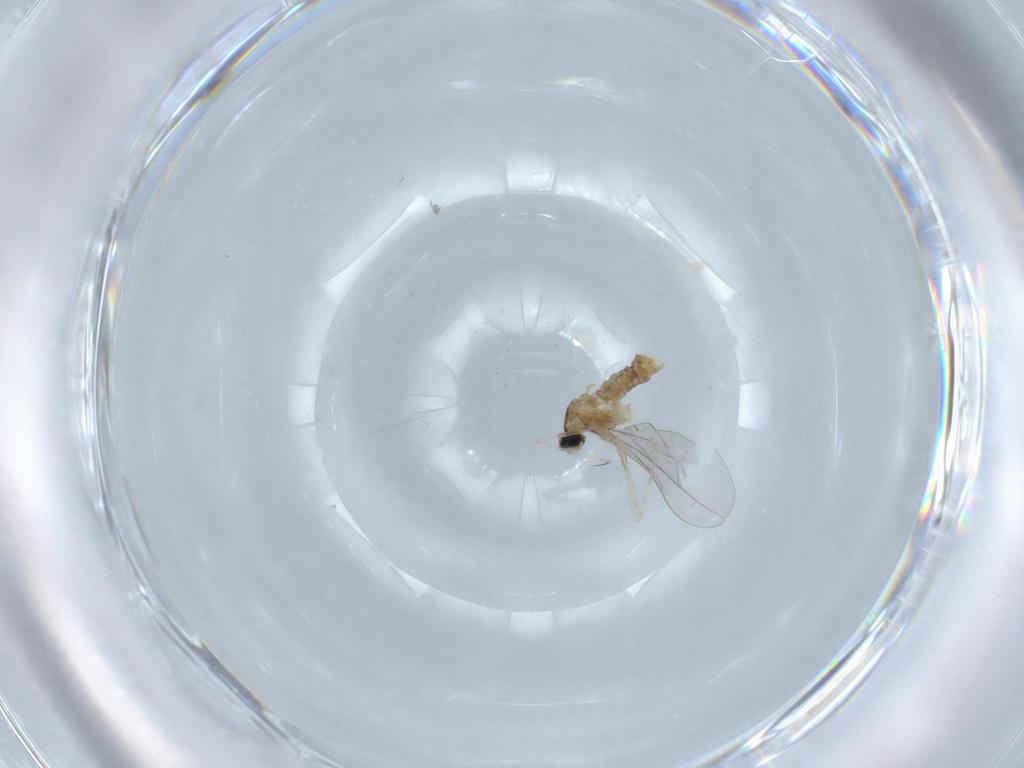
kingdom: Animalia
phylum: Arthropoda
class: Insecta
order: Diptera
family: Cecidomyiidae
